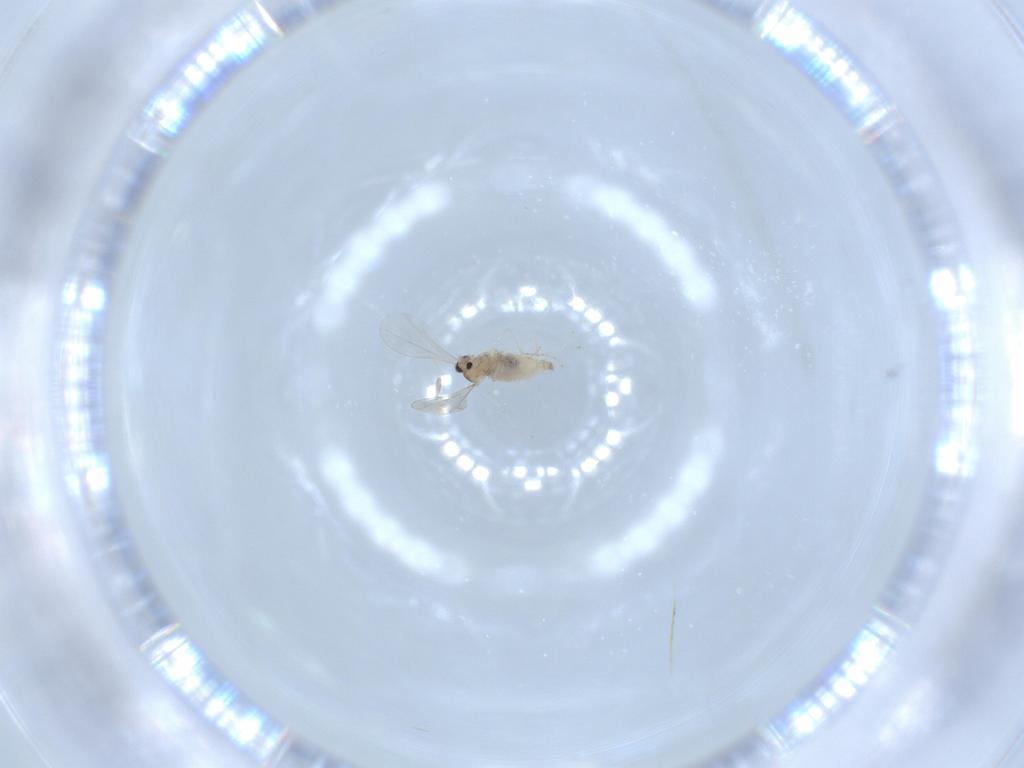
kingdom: Animalia
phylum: Arthropoda
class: Insecta
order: Diptera
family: Cecidomyiidae
